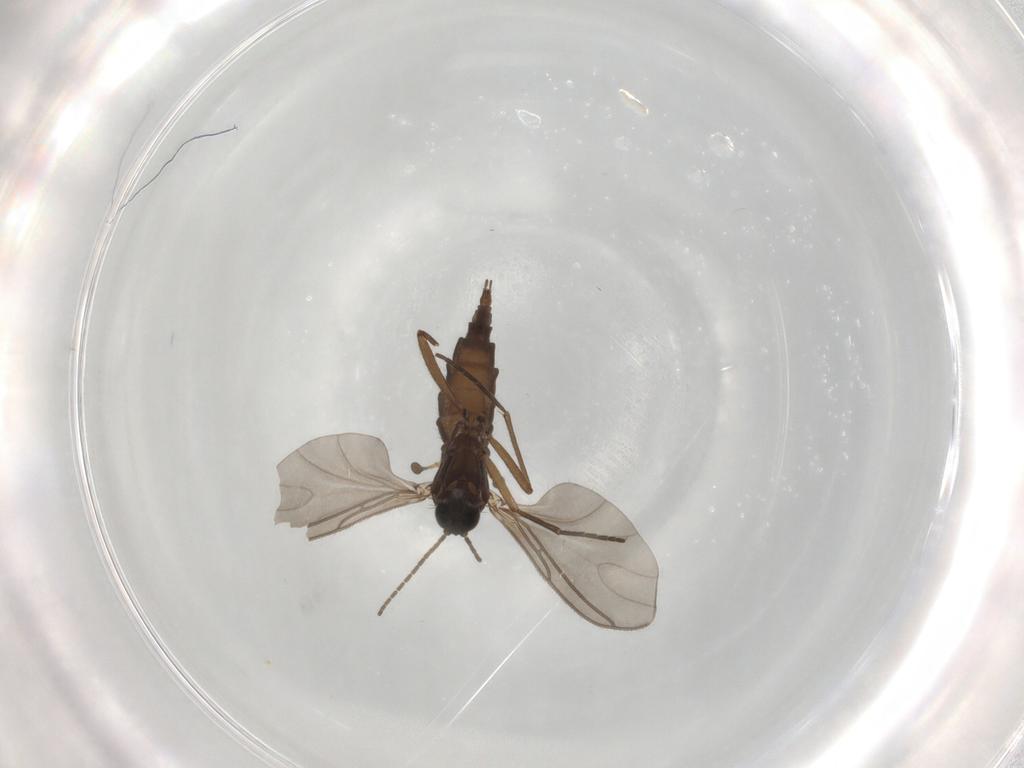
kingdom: Animalia
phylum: Arthropoda
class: Insecta
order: Diptera
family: Sciaridae
